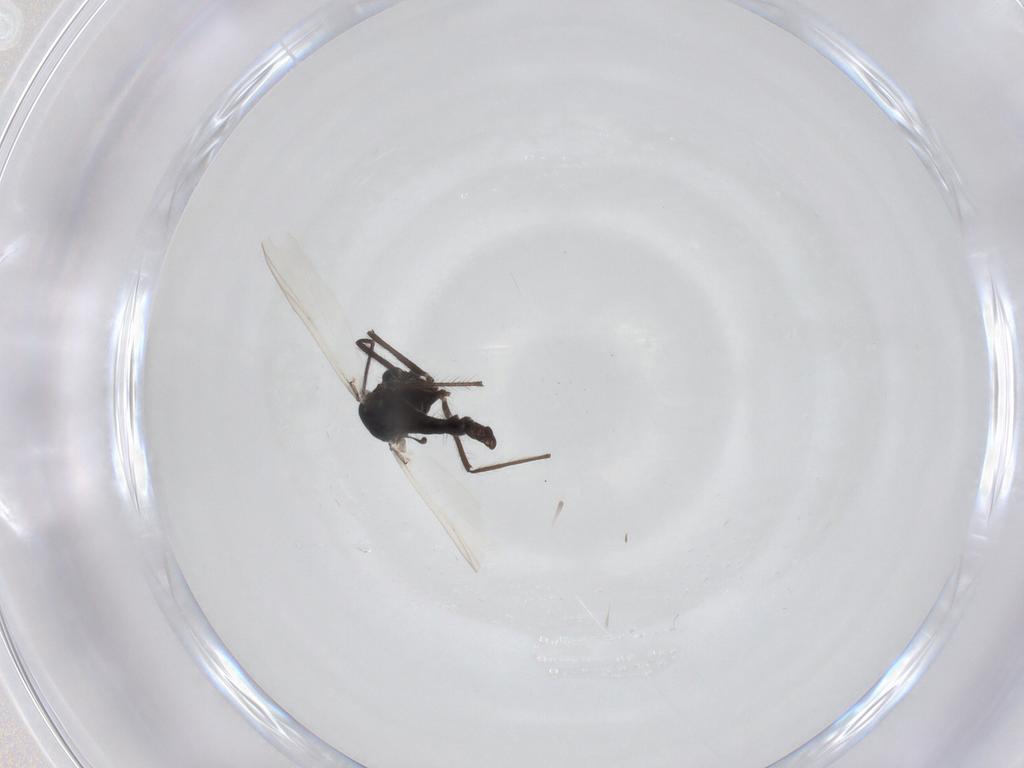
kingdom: Animalia
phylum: Arthropoda
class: Insecta
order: Diptera
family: Chironomidae
